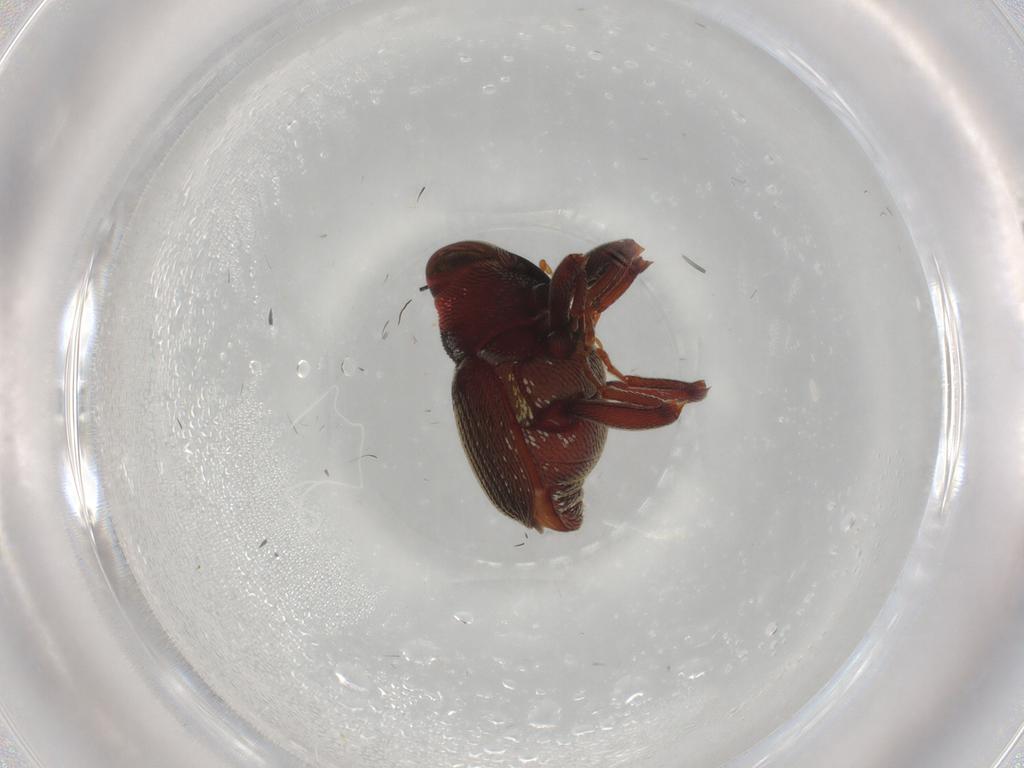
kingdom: Animalia
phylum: Arthropoda
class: Insecta
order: Coleoptera
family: Curculionidae
